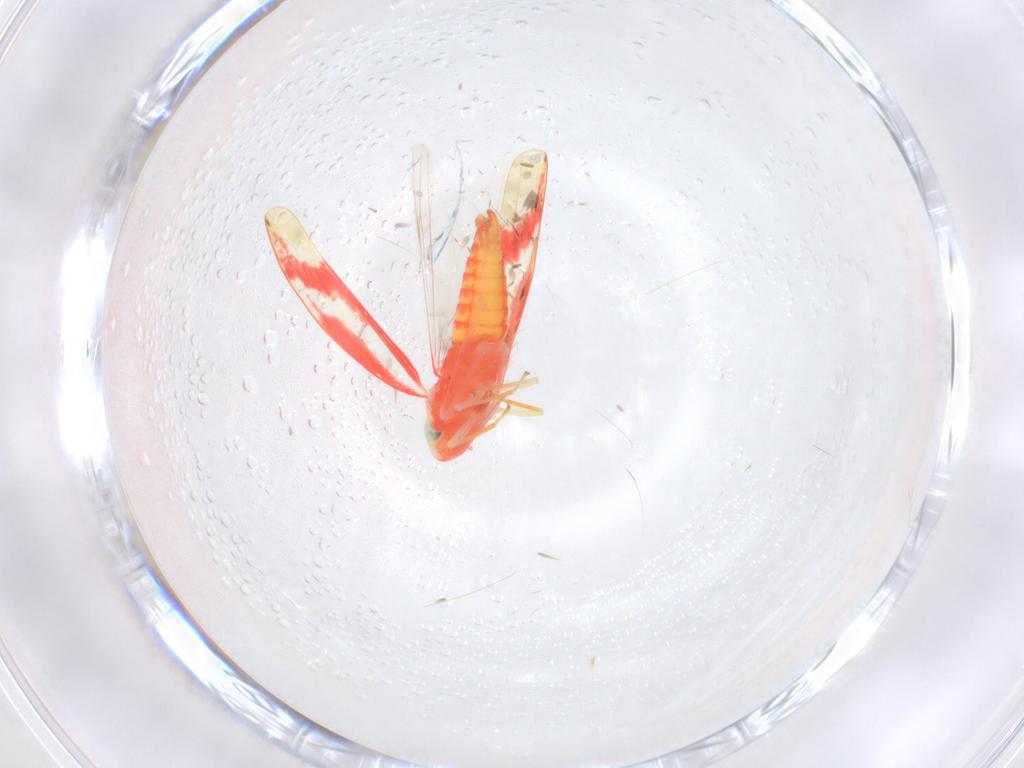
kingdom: Animalia
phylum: Arthropoda
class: Insecta
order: Hemiptera
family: Cicadellidae
